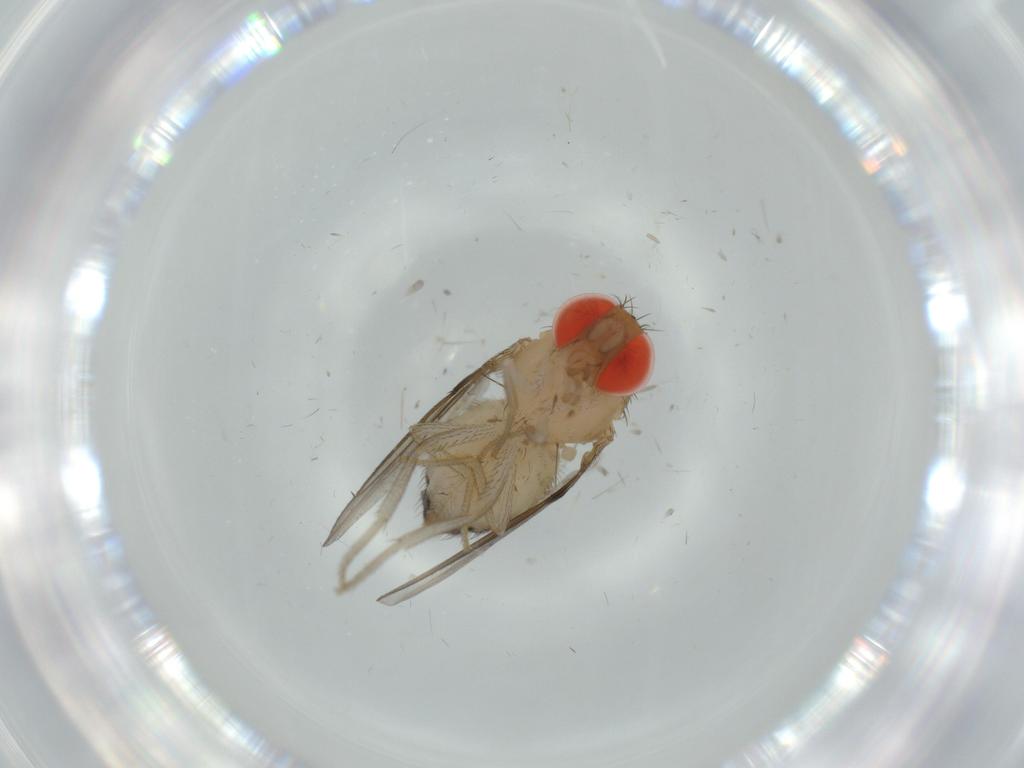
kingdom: Animalia
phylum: Arthropoda
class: Insecta
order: Diptera
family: Drosophilidae
